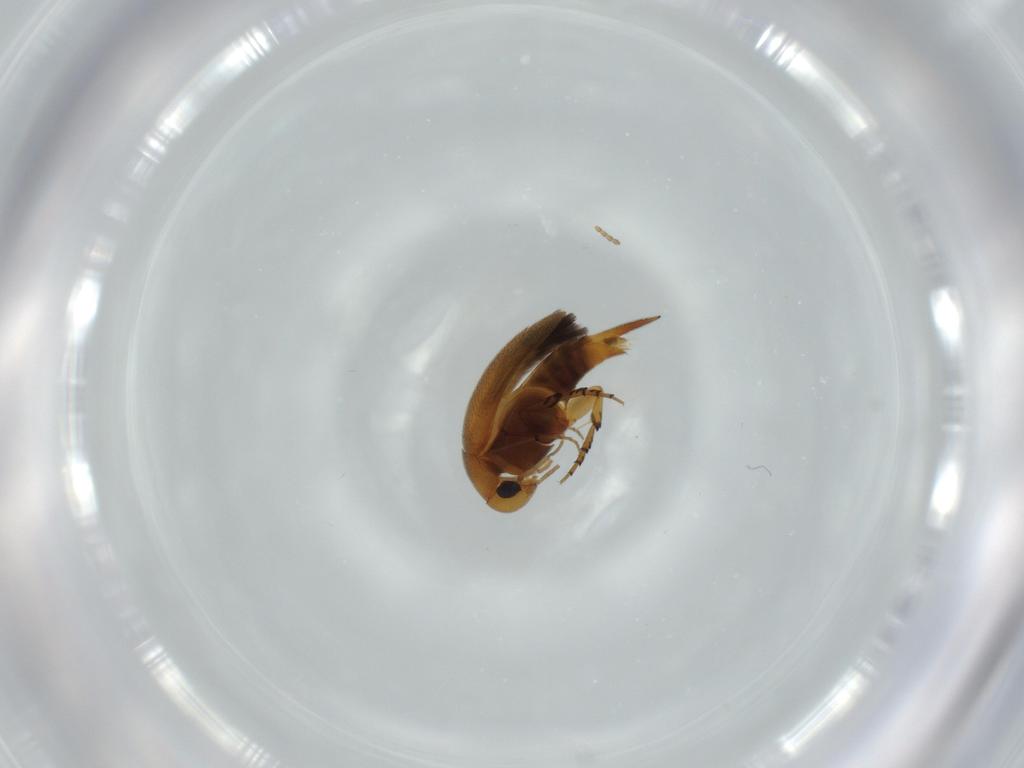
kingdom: Animalia
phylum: Arthropoda
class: Insecta
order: Coleoptera
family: Mordellidae
